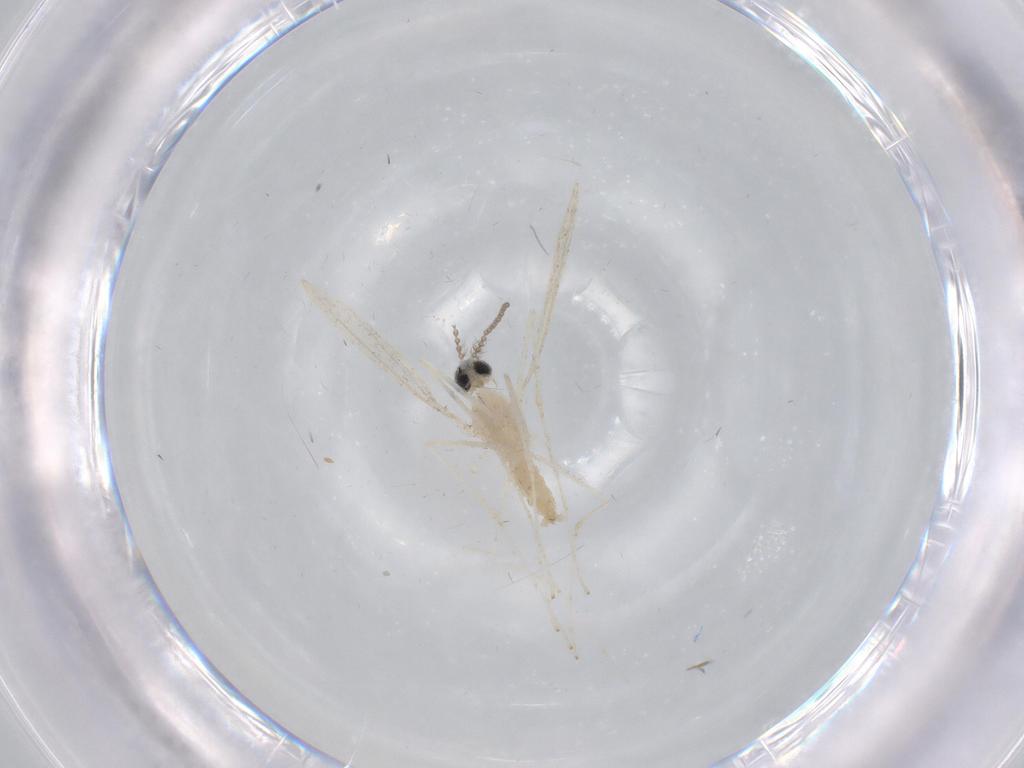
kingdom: Animalia
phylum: Arthropoda
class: Insecta
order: Diptera
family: Cecidomyiidae
